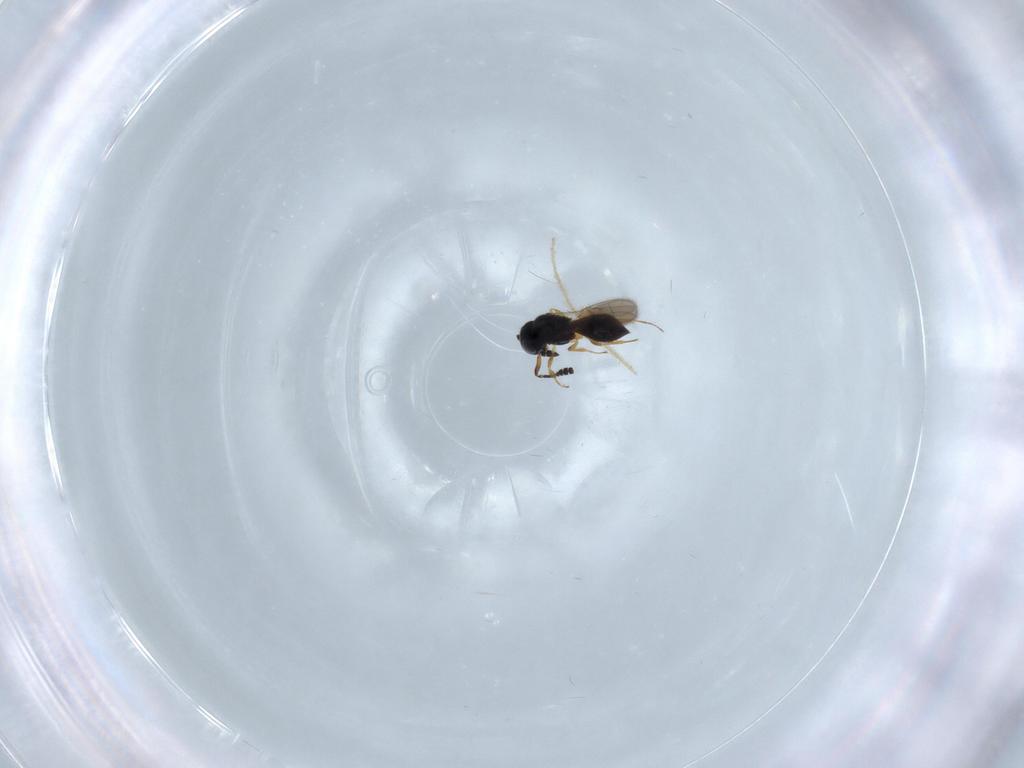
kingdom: Animalia
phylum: Arthropoda
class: Insecta
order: Hymenoptera
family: Scelionidae
